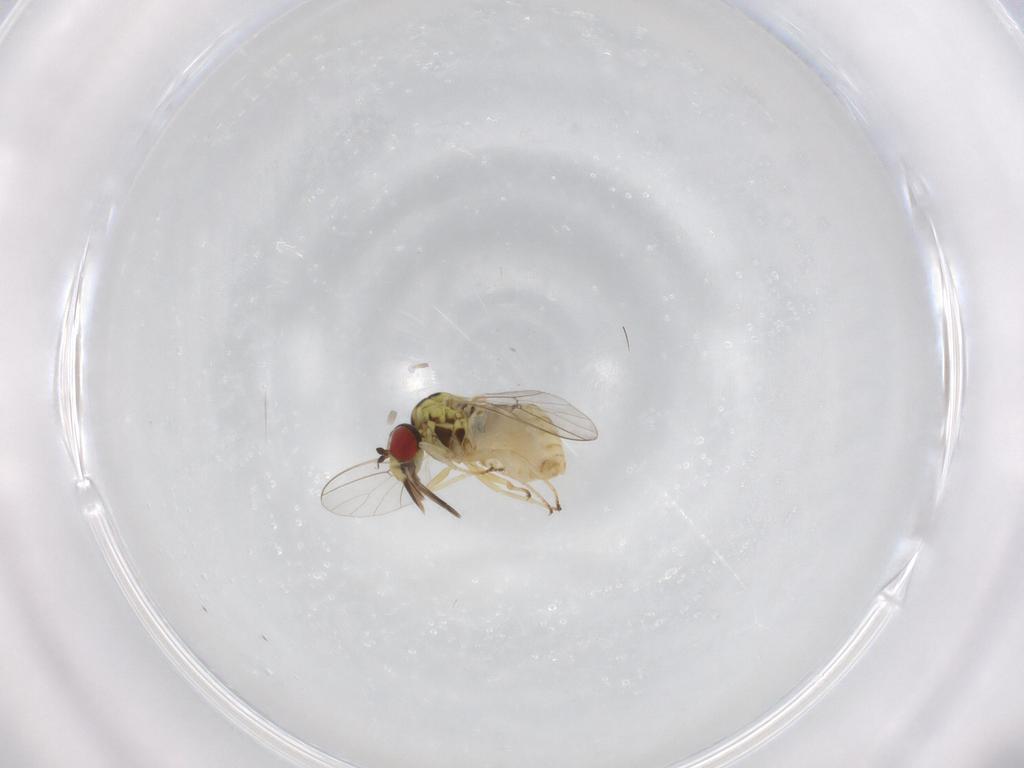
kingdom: Animalia
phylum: Arthropoda
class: Insecta
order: Diptera
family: Bombyliidae
